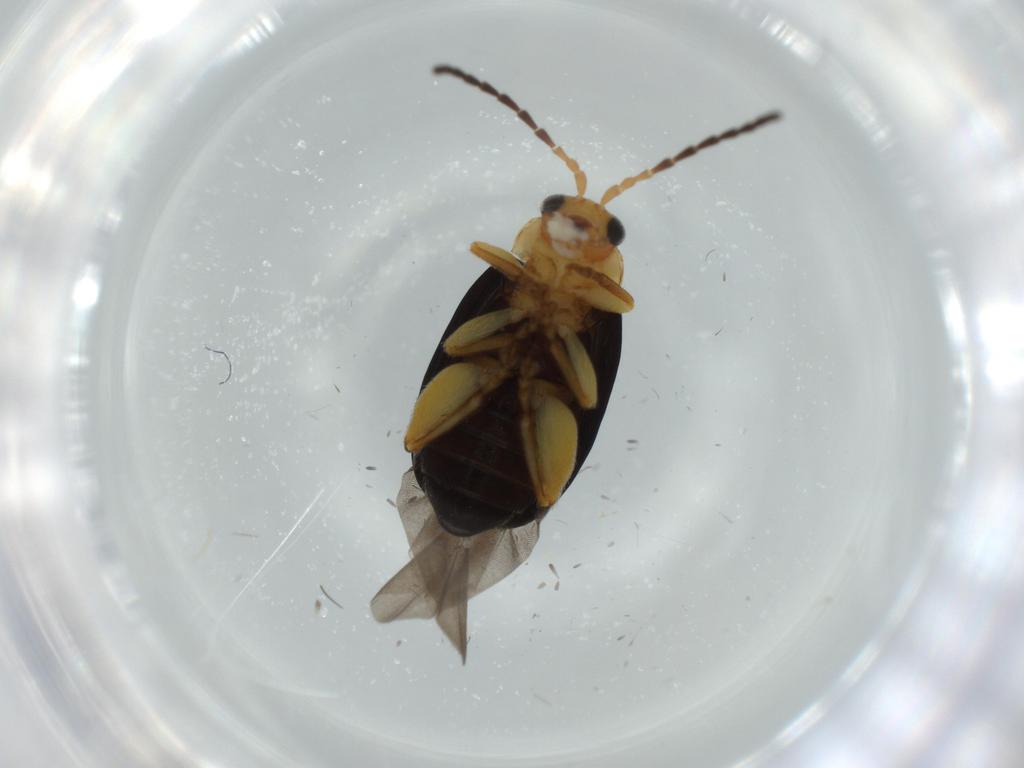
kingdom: Animalia
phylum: Arthropoda
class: Insecta
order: Coleoptera
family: Chrysomelidae
